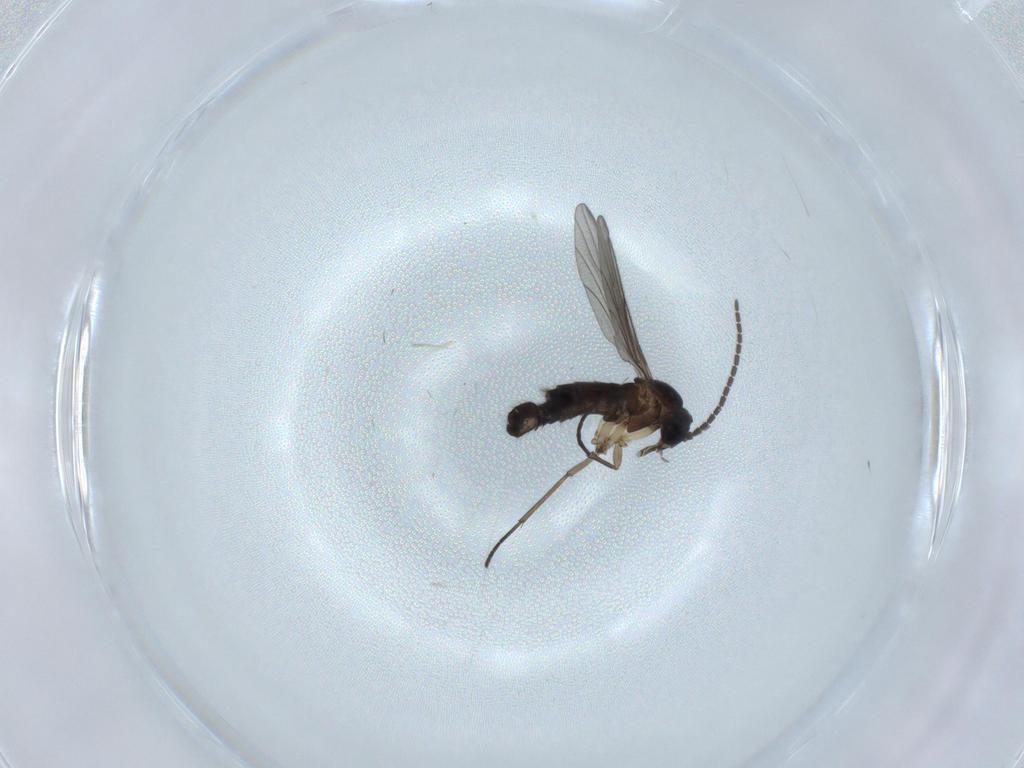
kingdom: Animalia
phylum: Arthropoda
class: Insecta
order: Diptera
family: Sciaridae
